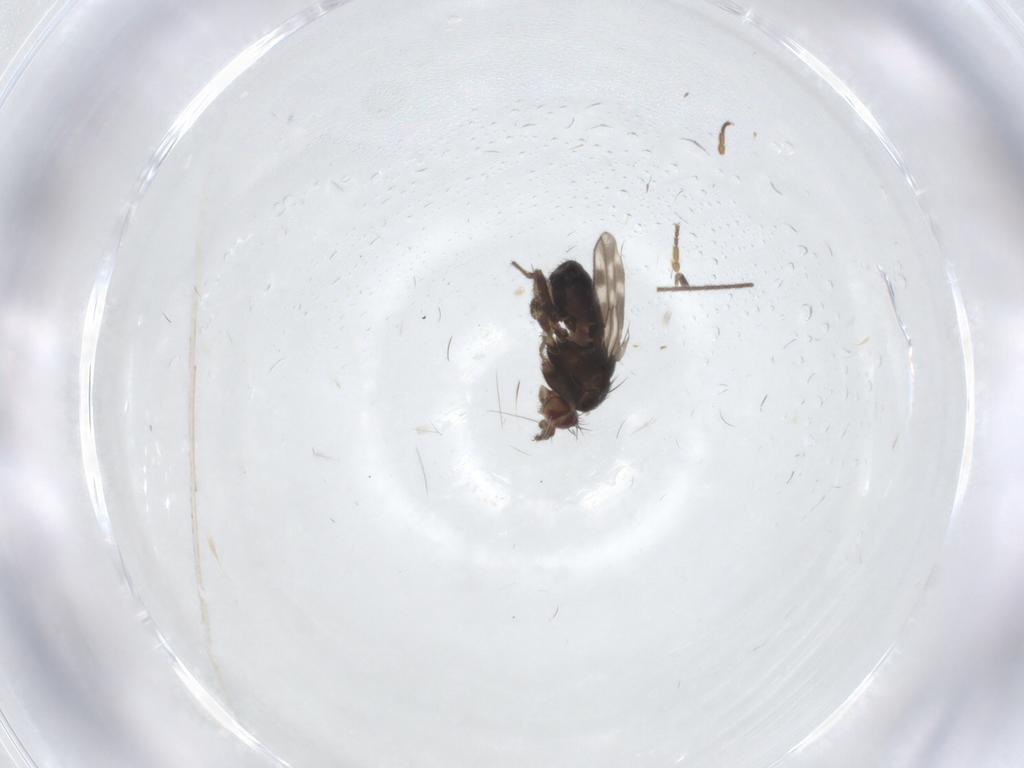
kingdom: Animalia
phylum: Arthropoda
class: Insecta
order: Diptera
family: Sphaeroceridae
